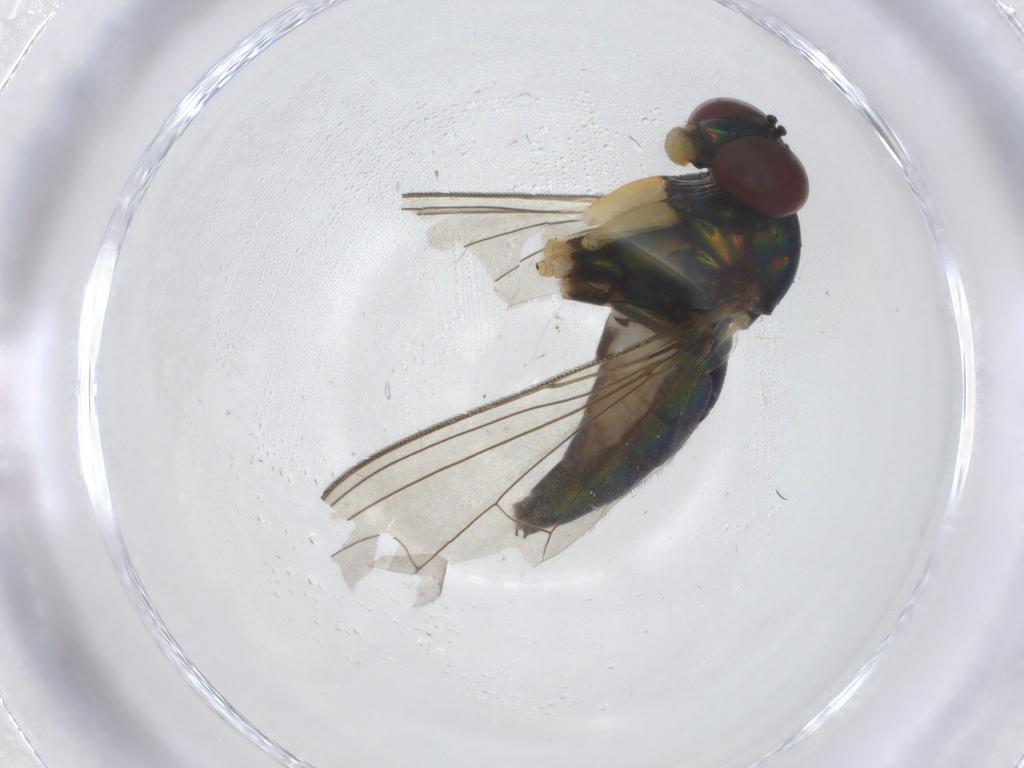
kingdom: Animalia
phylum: Arthropoda
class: Insecta
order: Diptera
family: Dolichopodidae
